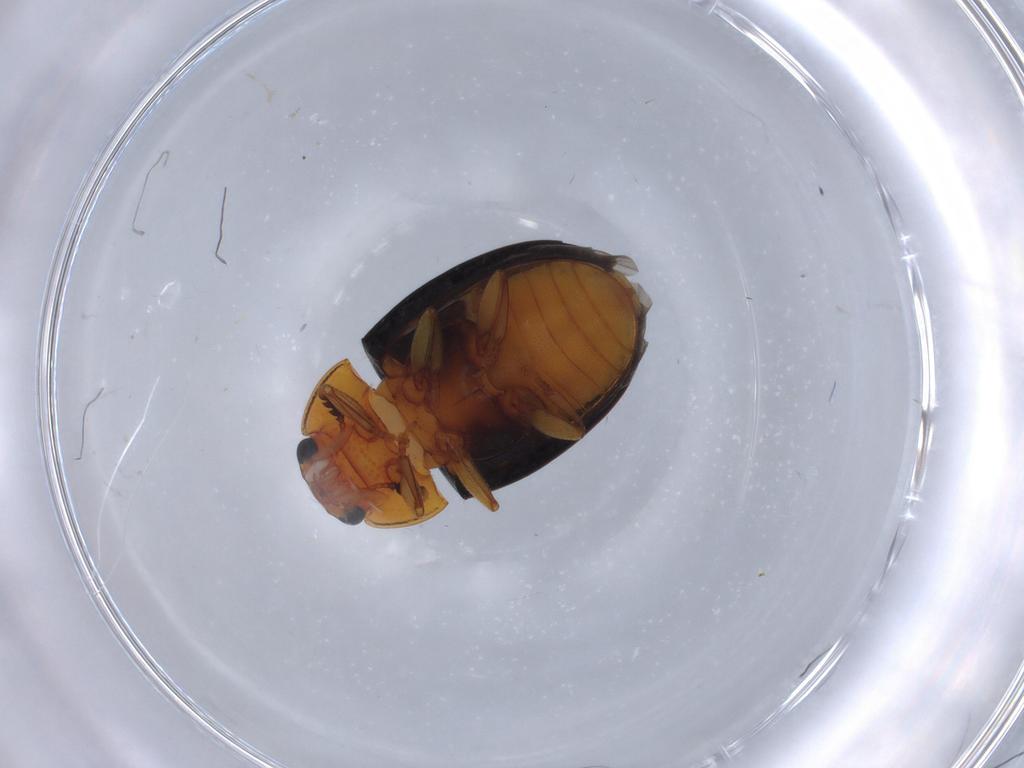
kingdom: Animalia
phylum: Arthropoda
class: Insecta
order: Coleoptera
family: Erotylidae
